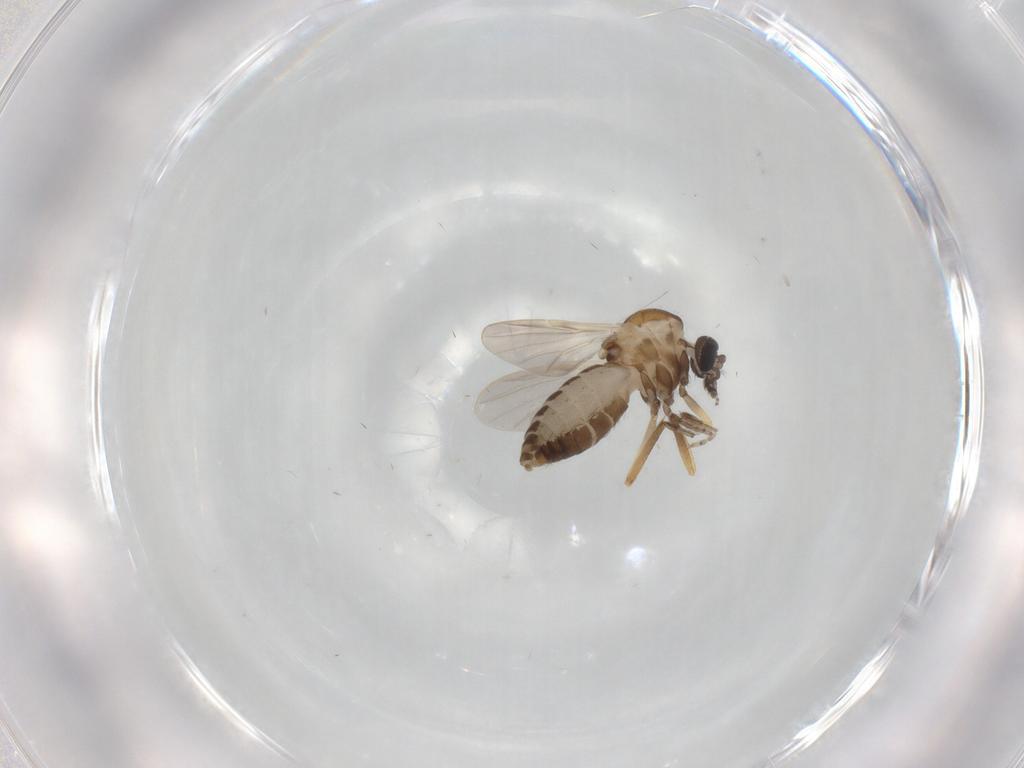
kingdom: Animalia
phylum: Arthropoda
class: Insecta
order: Diptera
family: Ceratopogonidae
